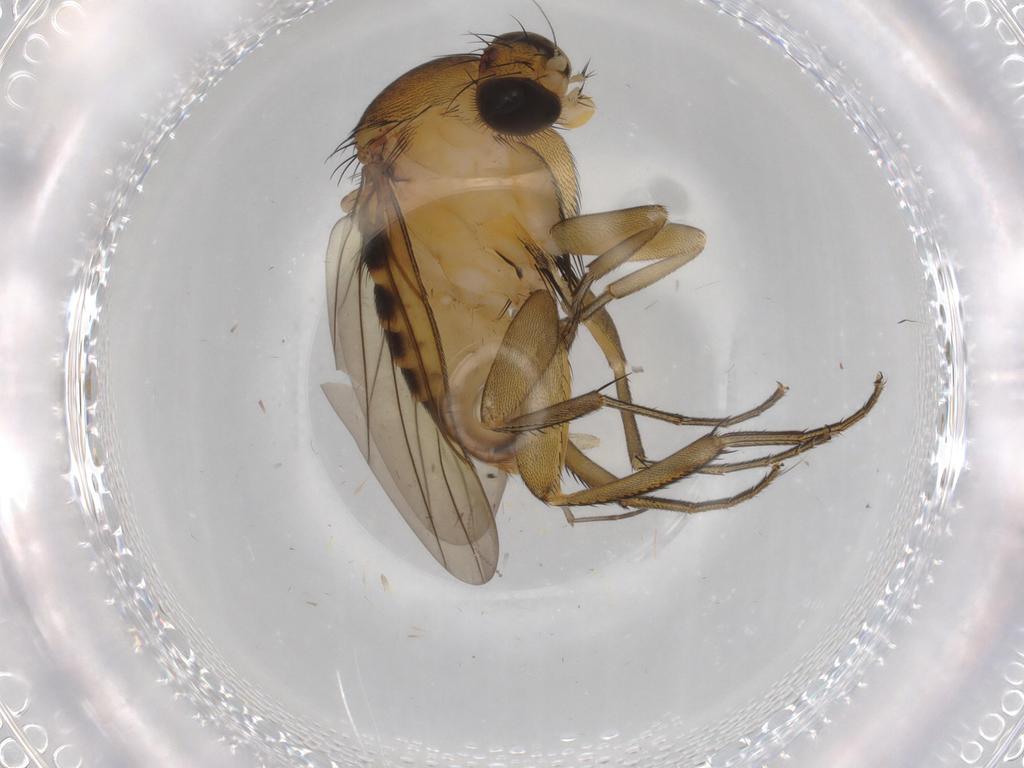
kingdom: Animalia
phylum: Arthropoda
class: Insecta
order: Diptera
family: Sciaridae
